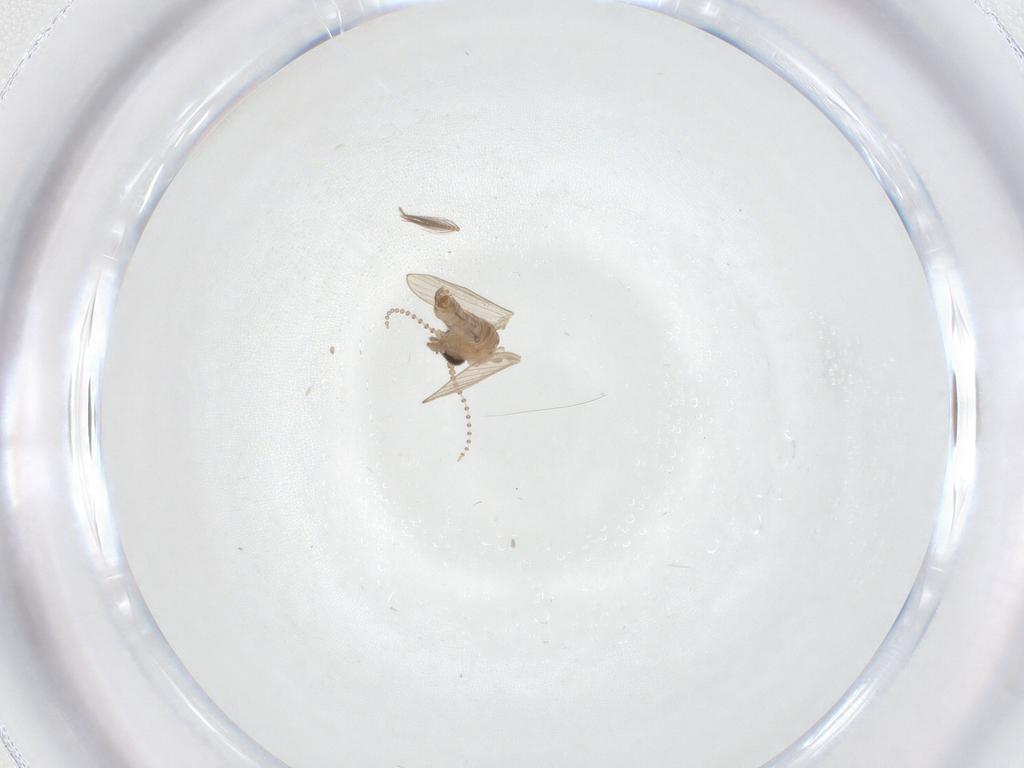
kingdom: Animalia
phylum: Arthropoda
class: Insecta
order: Diptera
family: Psychodidae
